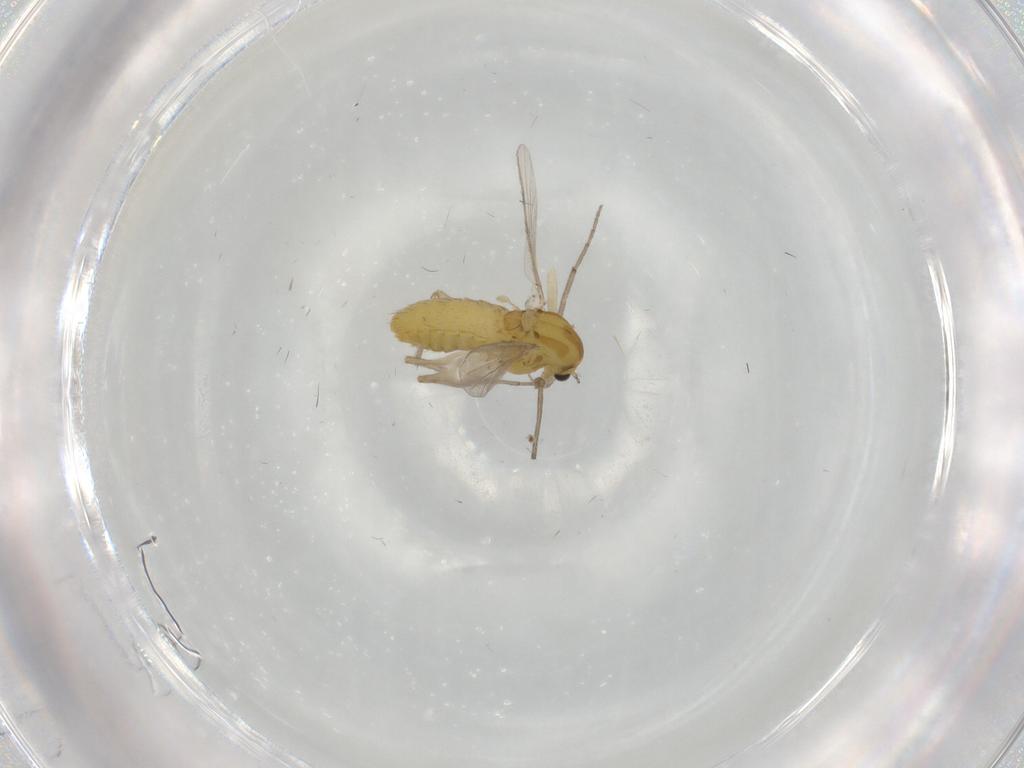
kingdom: Animalia
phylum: Arthropoda
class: Insecta
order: Diptera
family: Chironomidae
